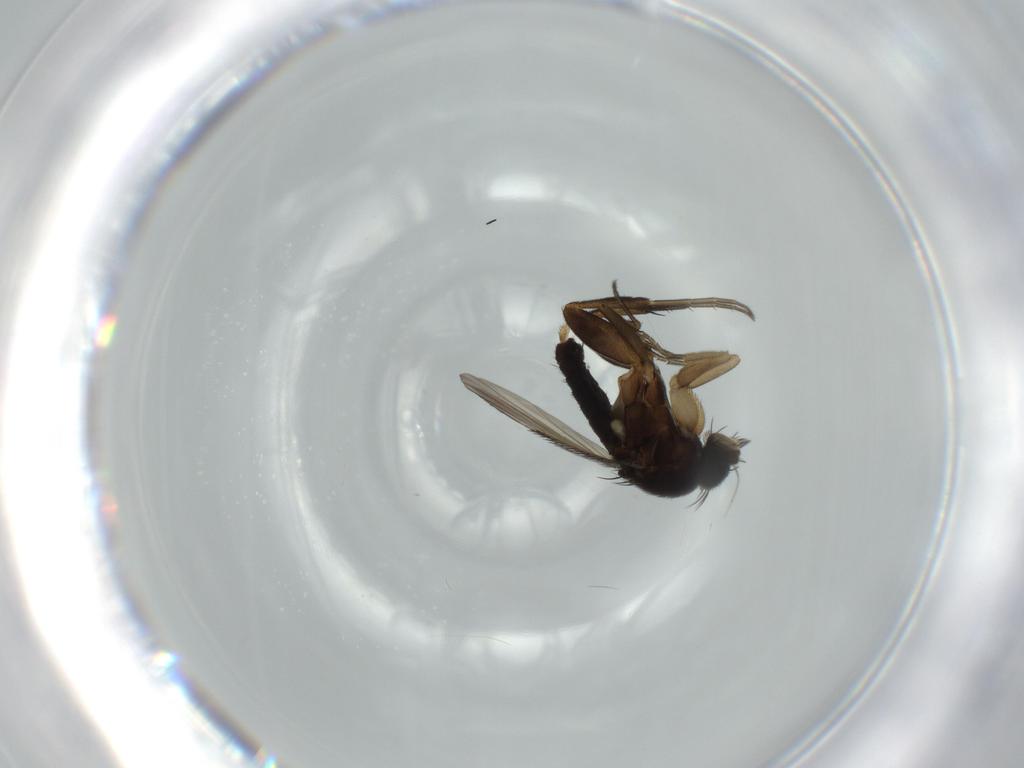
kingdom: Animalia
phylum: Arthropoda
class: Insecta
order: Diptera
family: Phoridae
